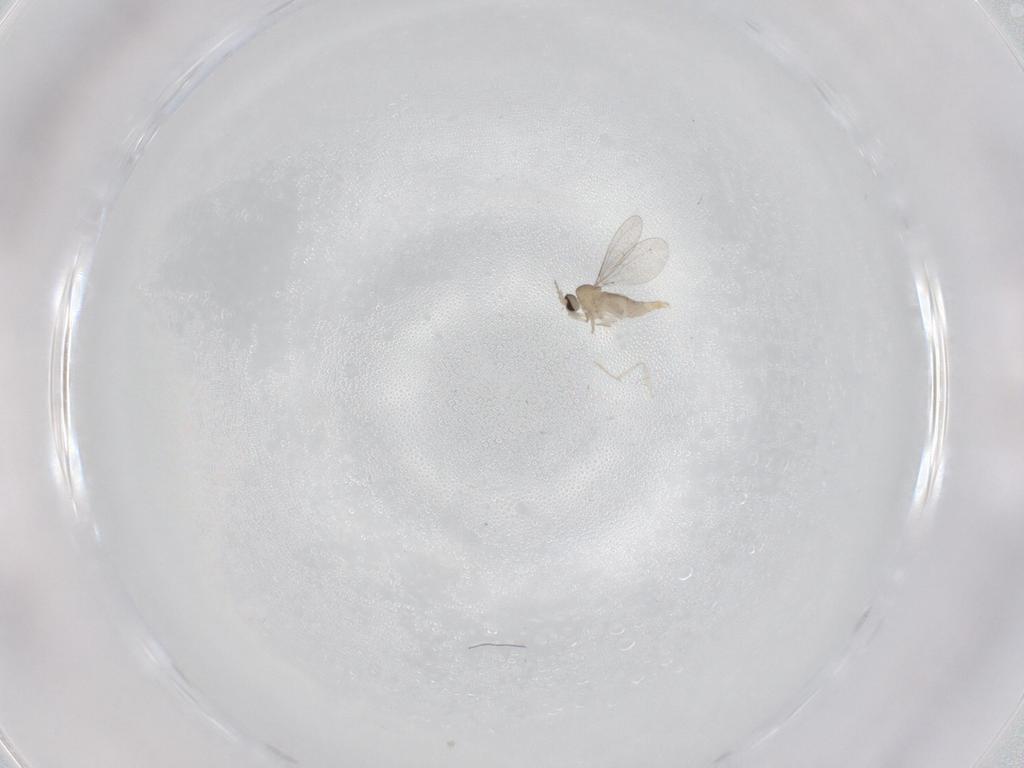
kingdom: Animalia
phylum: Arthropoda
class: Insecta
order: Diptera
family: Cecidomyiidae
